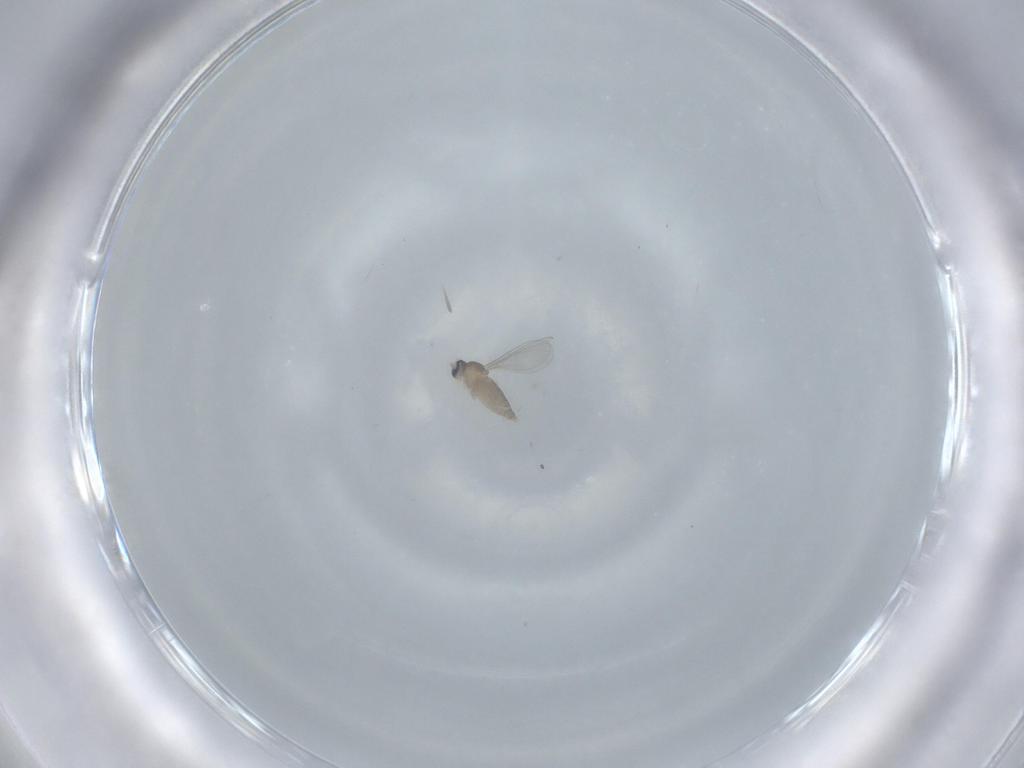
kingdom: Animalia
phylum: Arthropoda
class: Insecta
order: Diptera
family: Cecidomyiidae
